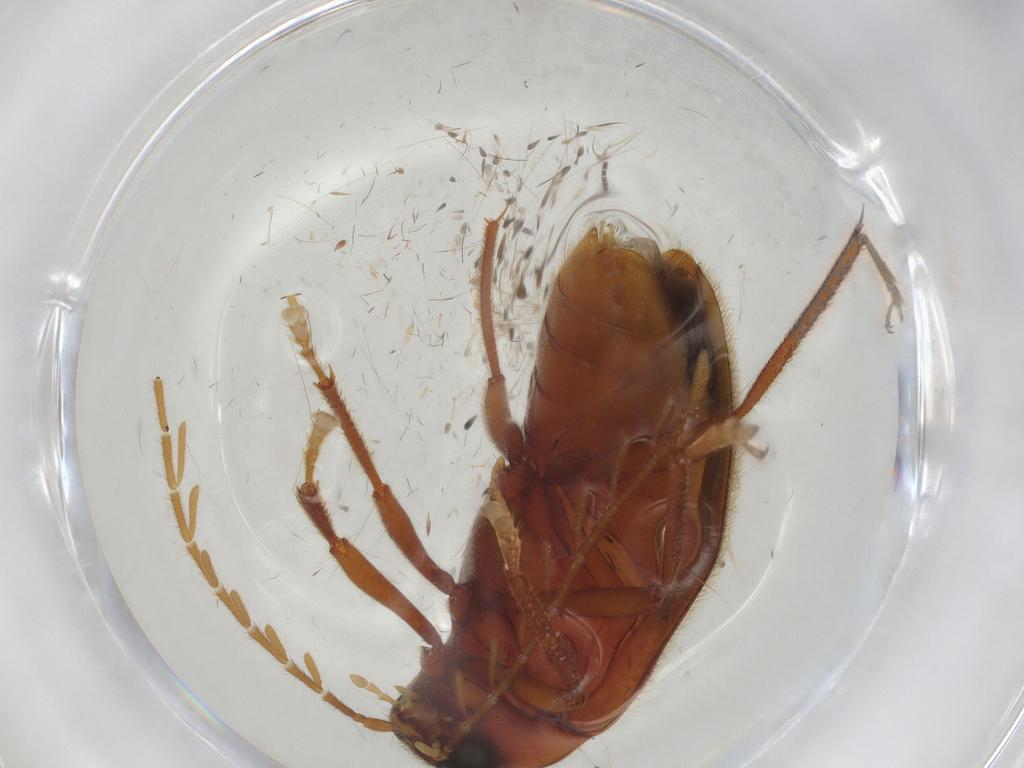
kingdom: Animalia
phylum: Arthropoda
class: Insecta
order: Coleoptera
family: Ptilodactylidae
